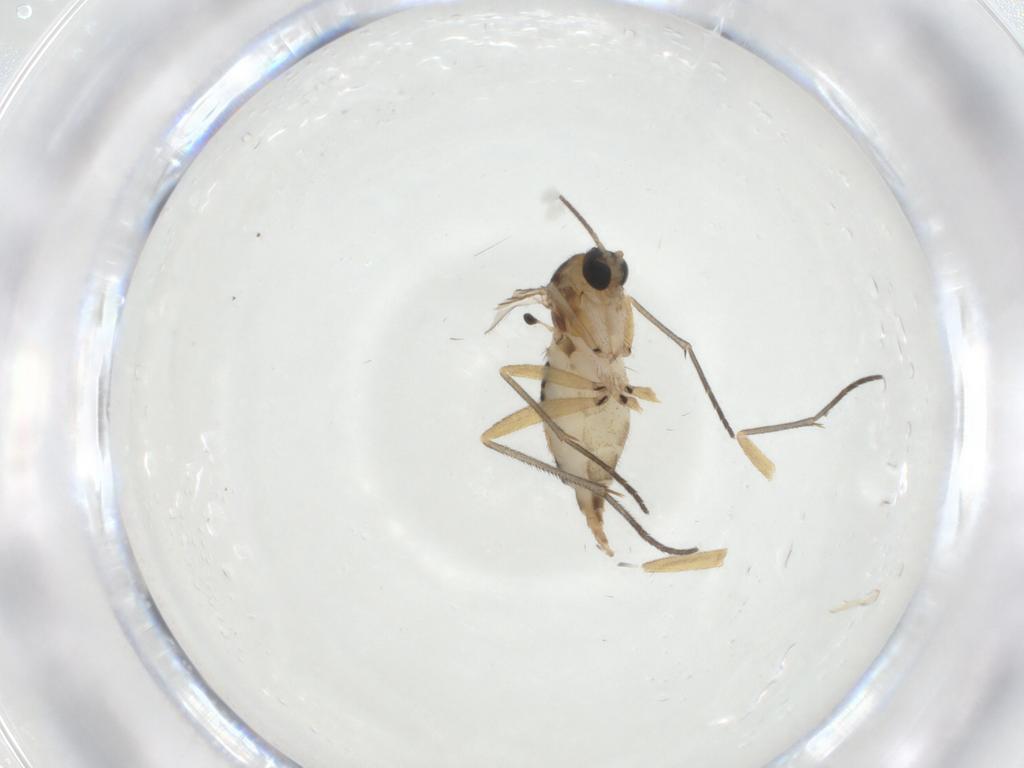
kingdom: Animalia
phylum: Arthropoda
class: Insecta
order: Diptera
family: Sciaridae
